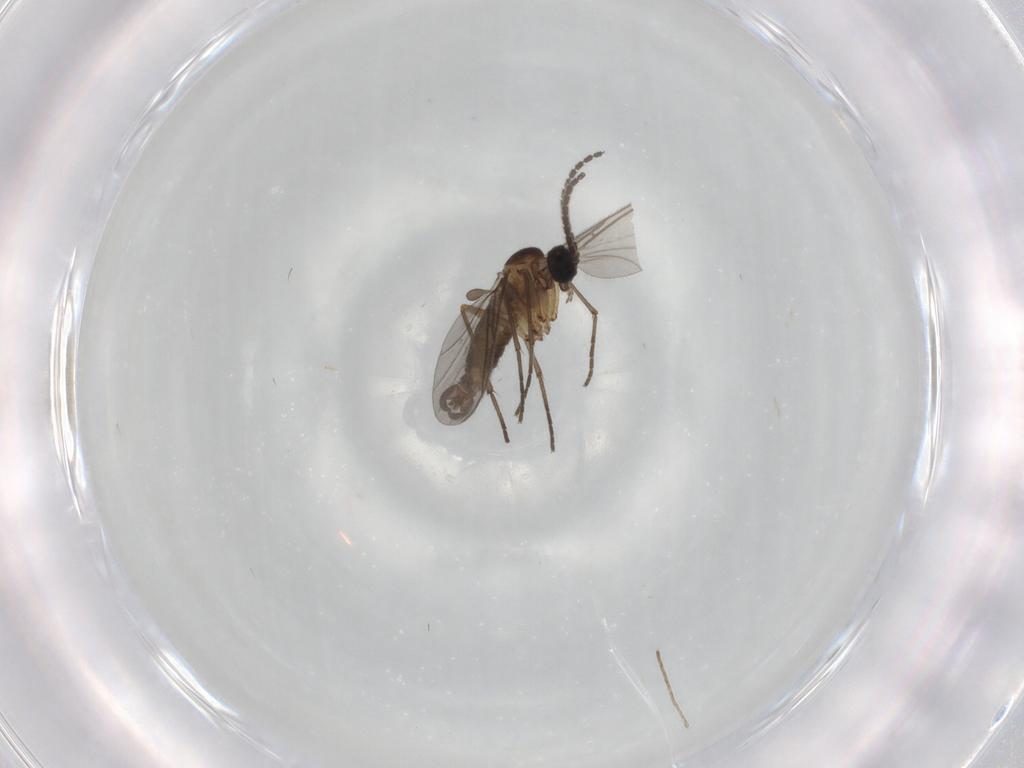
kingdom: Animalia
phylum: Arthropoda
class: Insecta
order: Diptera
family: Sciaridae
